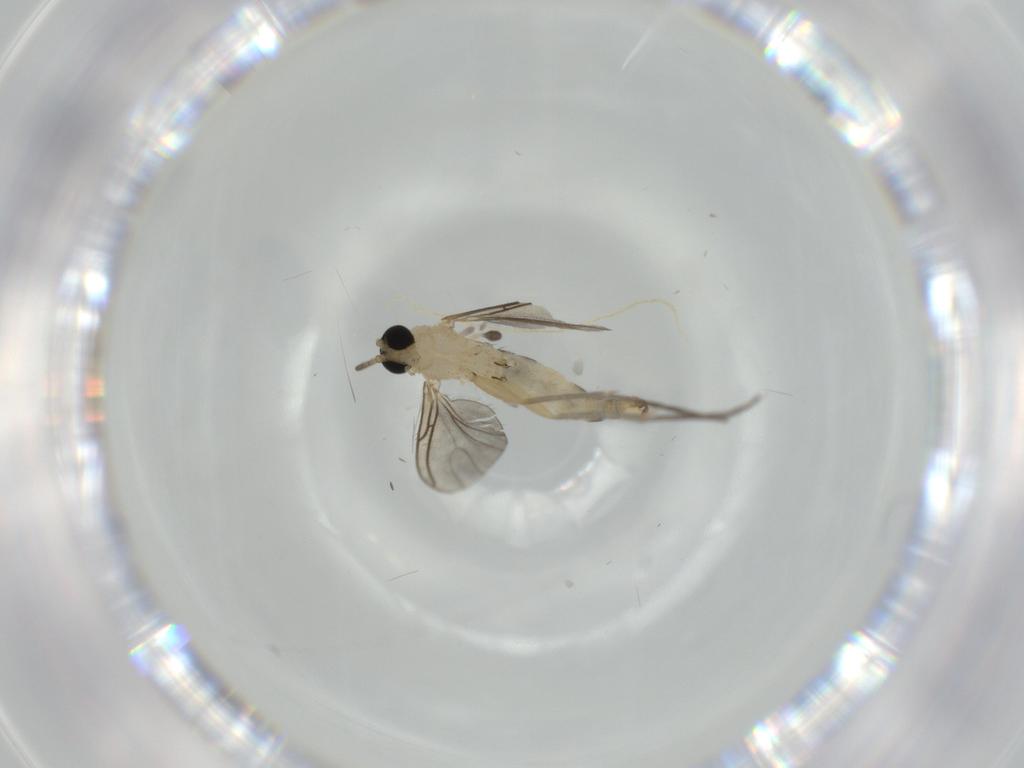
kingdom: Animalia
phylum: Arthropoda
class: Insecta
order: Diptera
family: Sciaridae
